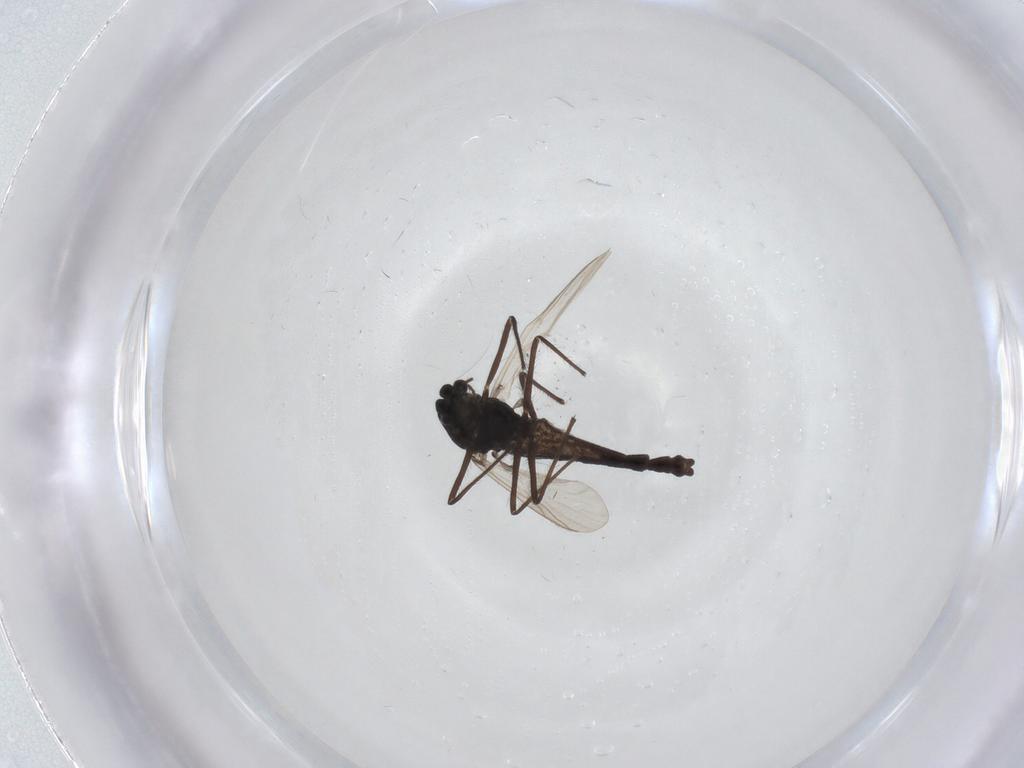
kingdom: Animalia
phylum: Arthropoda
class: Insecta
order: Diptera
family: Chironomidae
